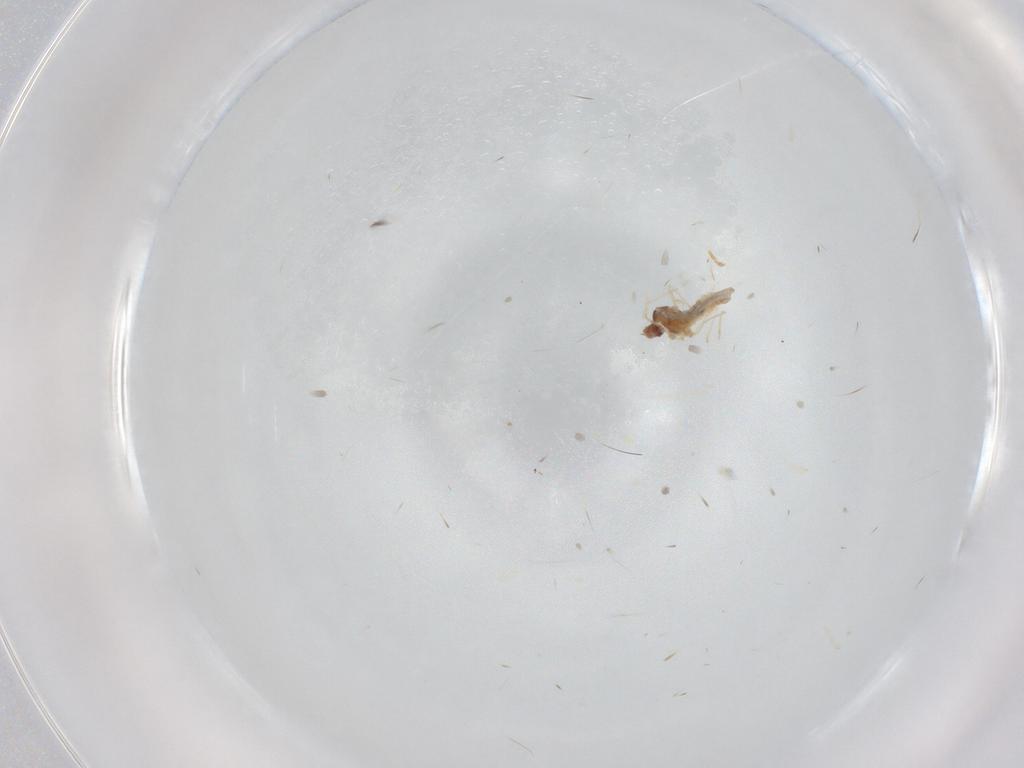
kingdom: Animalia
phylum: Arthropoda
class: Insecta
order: Diptera
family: Cecidomyiidae
